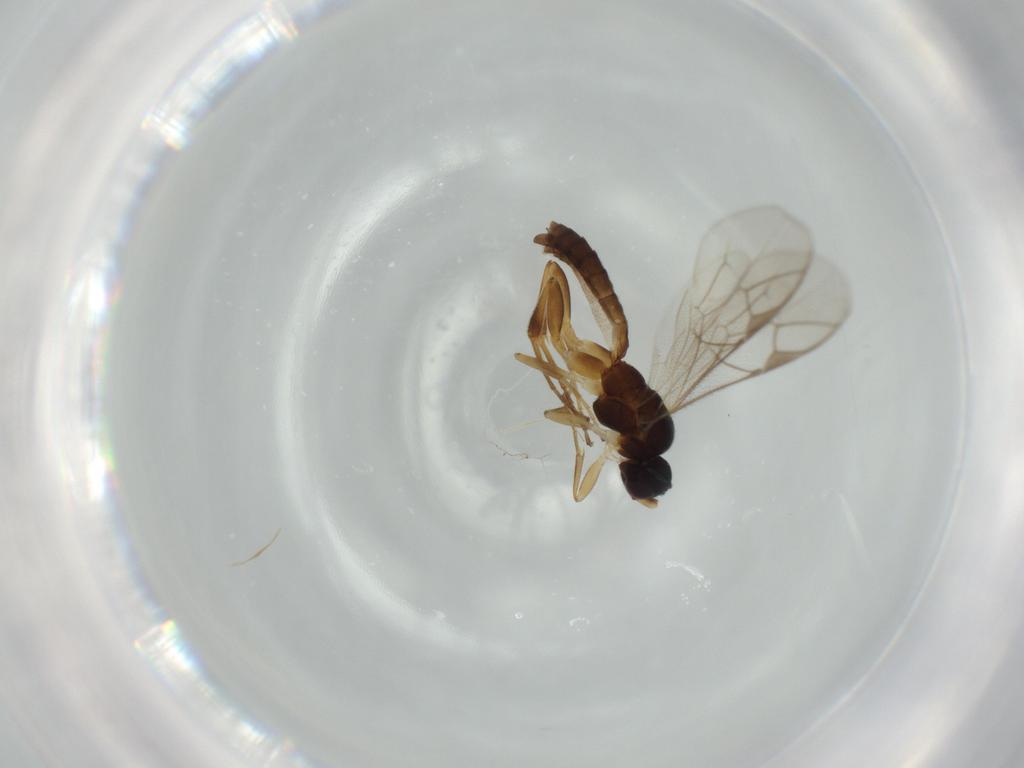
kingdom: Animalia
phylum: Arthropoda
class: Insecta
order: Hymenoptera
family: Ichneumonidae
